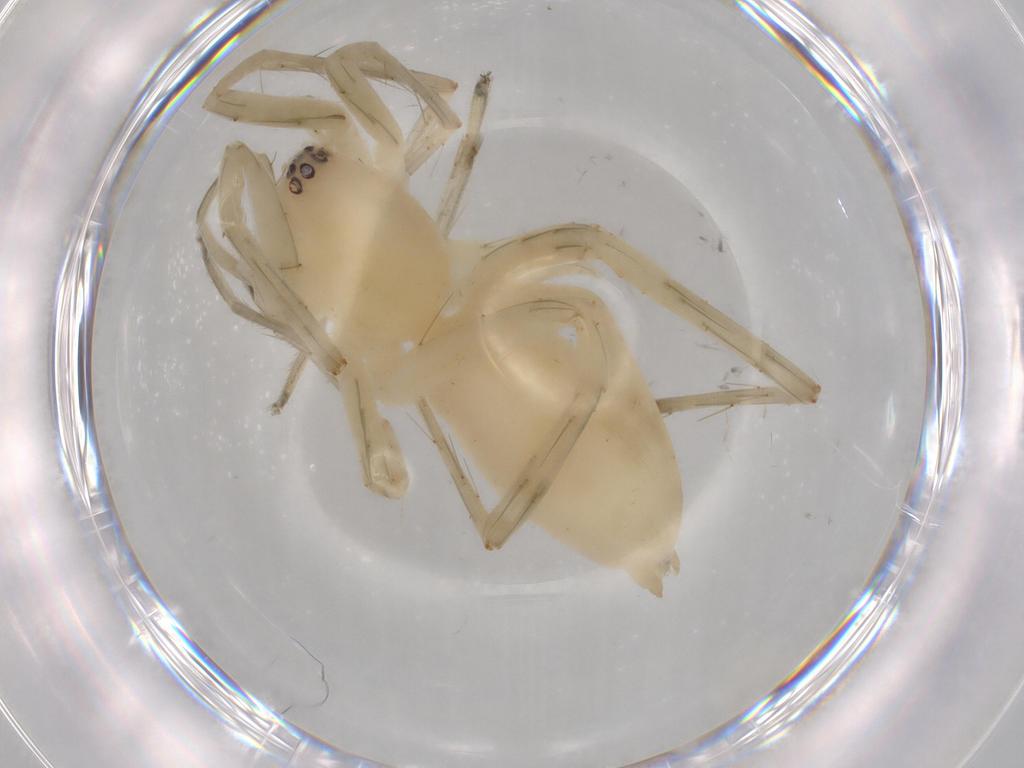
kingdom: Animalia
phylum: Arthropoda
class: Arachnida
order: Araneae
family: Anyphaenidae
